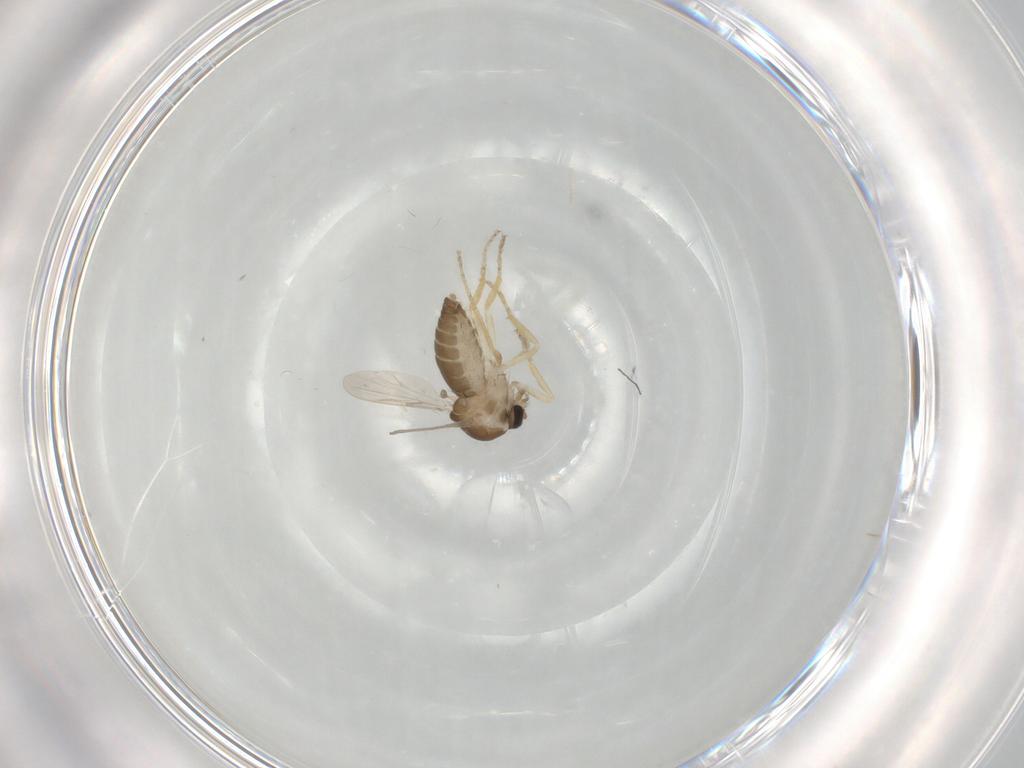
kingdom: Animalia
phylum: Arthropoda
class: Insecta
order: Diptera
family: Ceratopogonidae
